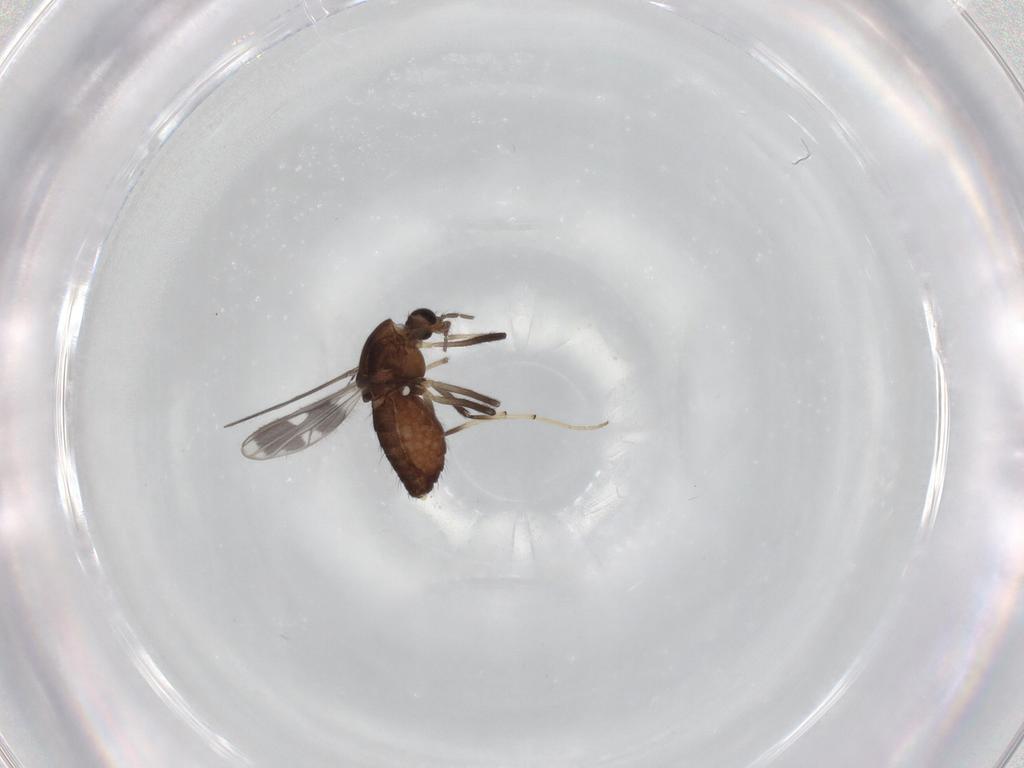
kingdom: Animalia
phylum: Arthropoda
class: Insecta
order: Diptera
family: Chironomidae
